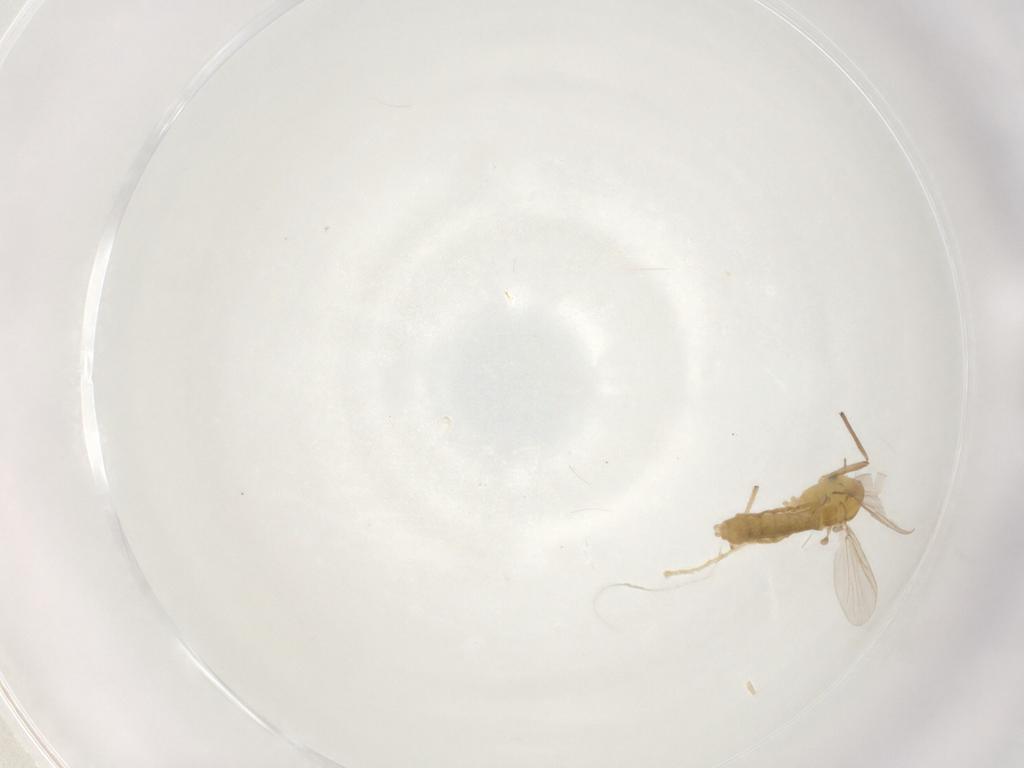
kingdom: Animalia
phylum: Arthropoda
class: Insecta
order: Diptera
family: Chironomidae
